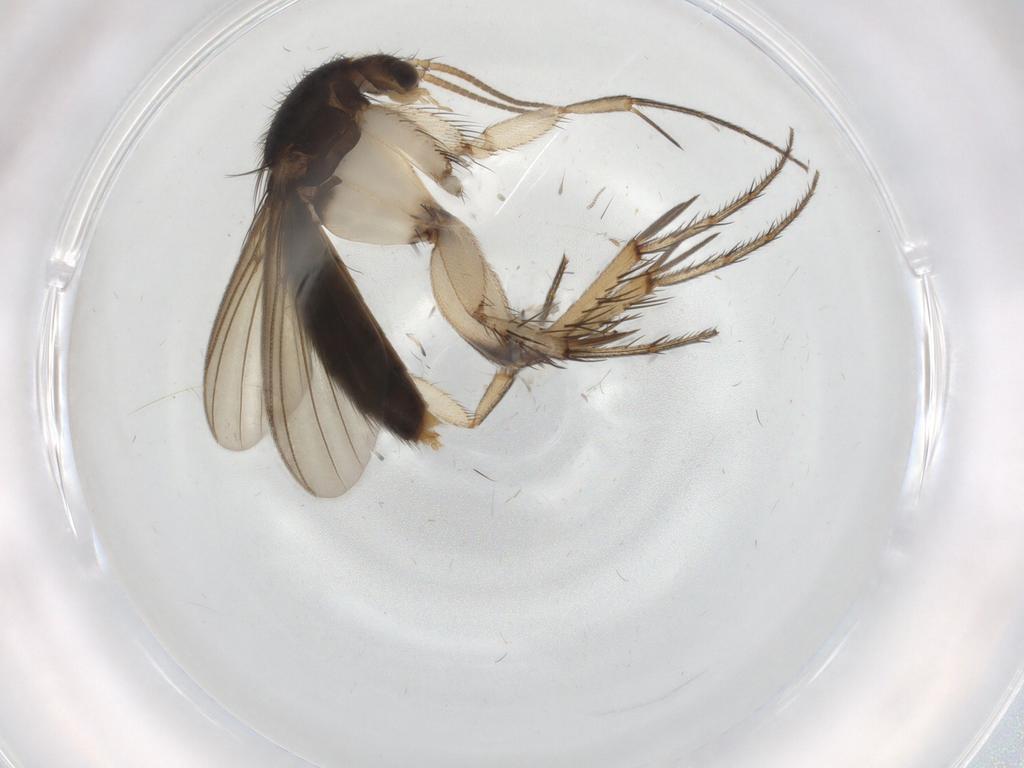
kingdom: Animalia
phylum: Arthropoda
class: Insecta
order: Diptera
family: Mycetophilidae
